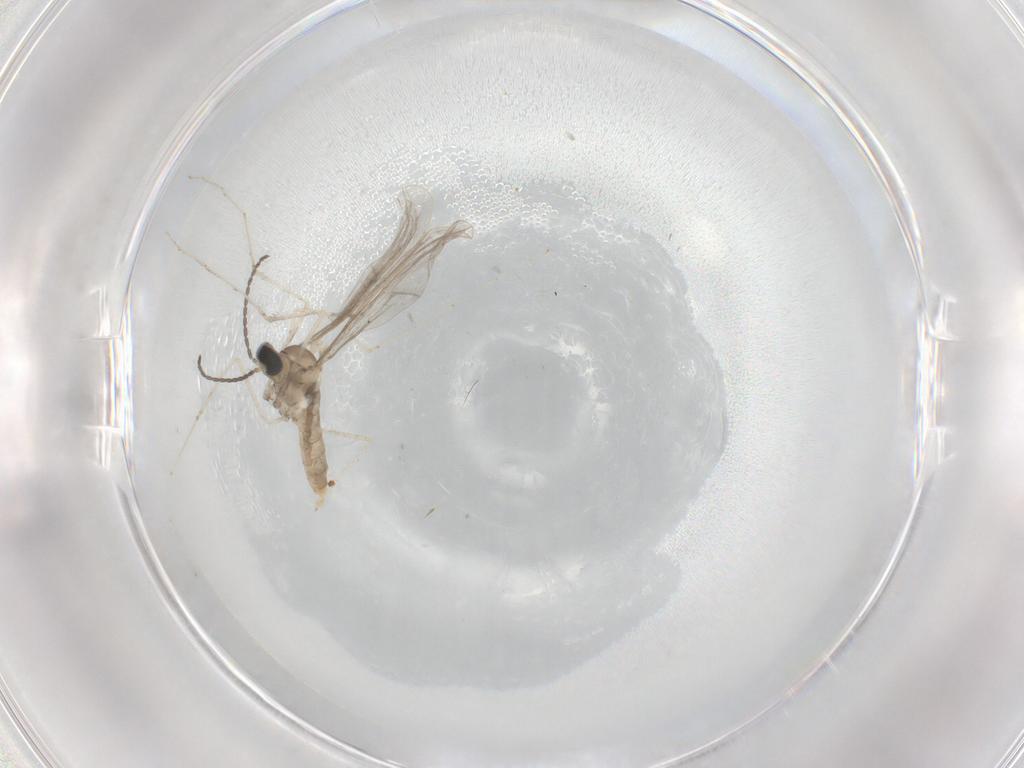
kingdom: Animalia
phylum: Arthropoda
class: Insecta
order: Diptera
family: Cecidomyiidae
